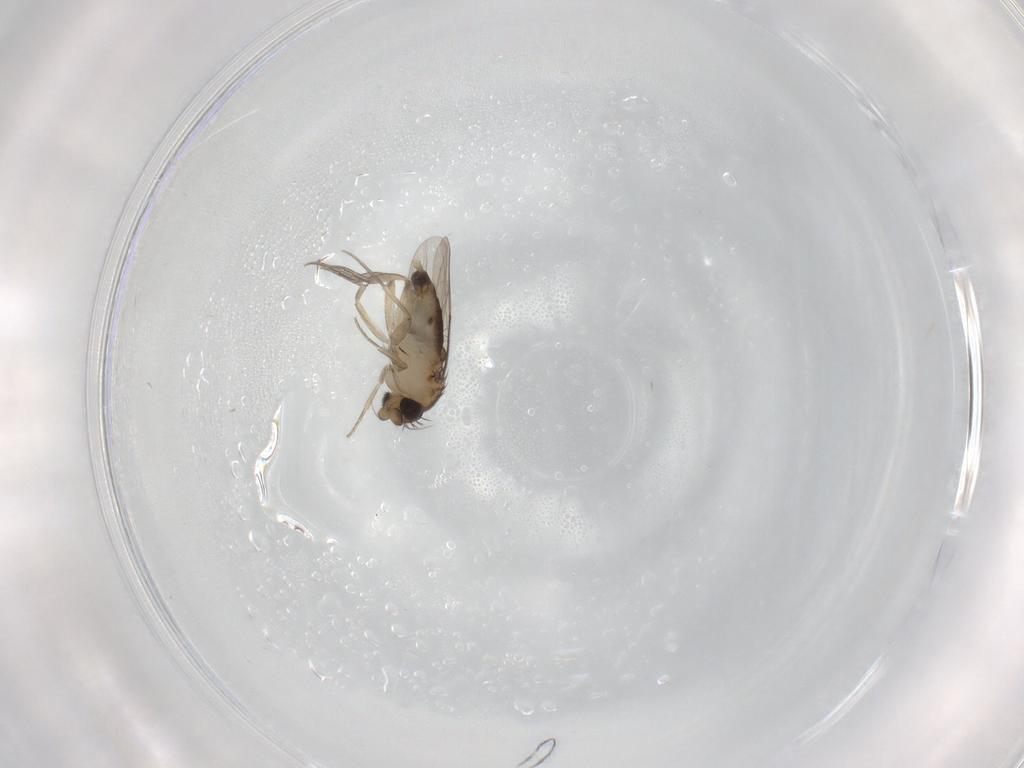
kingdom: Animalia
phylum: Arthropoda
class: Insecta
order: Diptera
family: Phoridae
